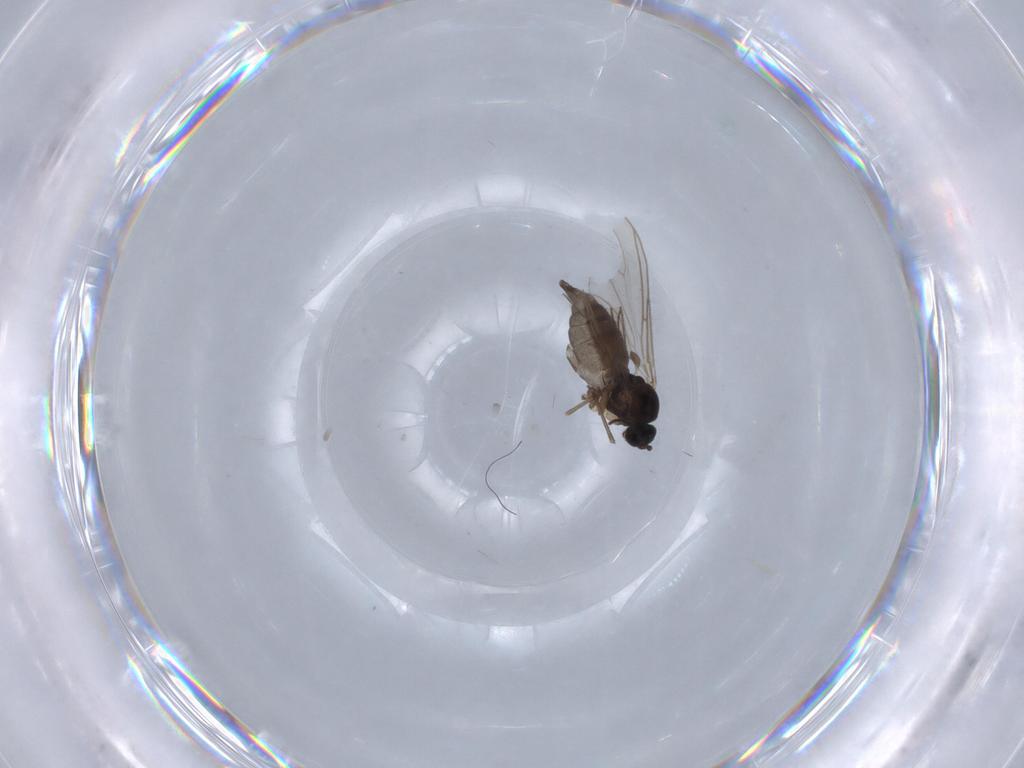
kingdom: Animalia
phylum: Arthropoda
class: Insecta
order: Diptera
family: Sciaridae
